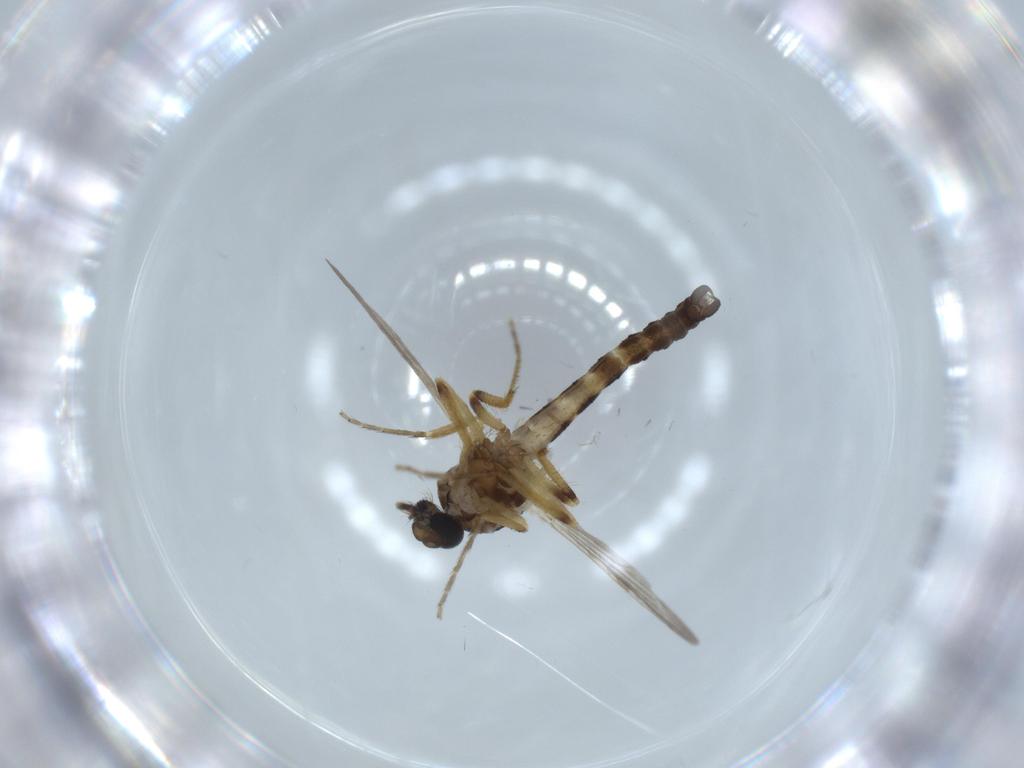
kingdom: Animalia
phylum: Arthropoda
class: Insecta
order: Diptera
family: Ceratopogonidae
